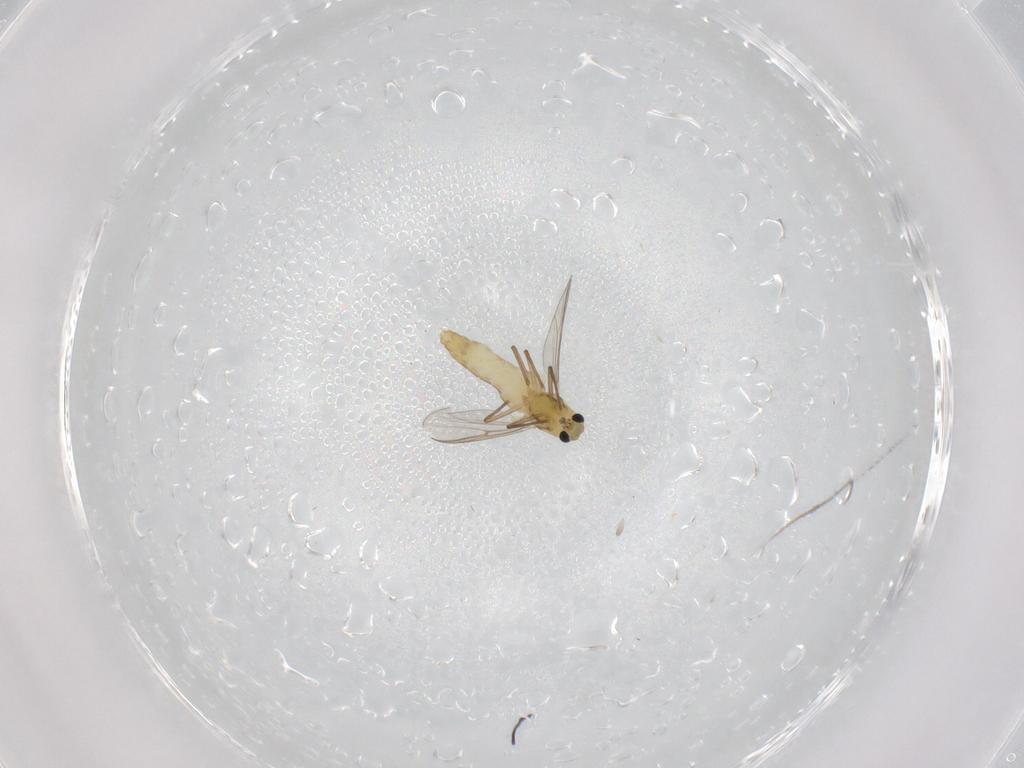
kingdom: Animalia
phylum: Arthropoda
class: Insecta
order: Diptera
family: Chironomidae
